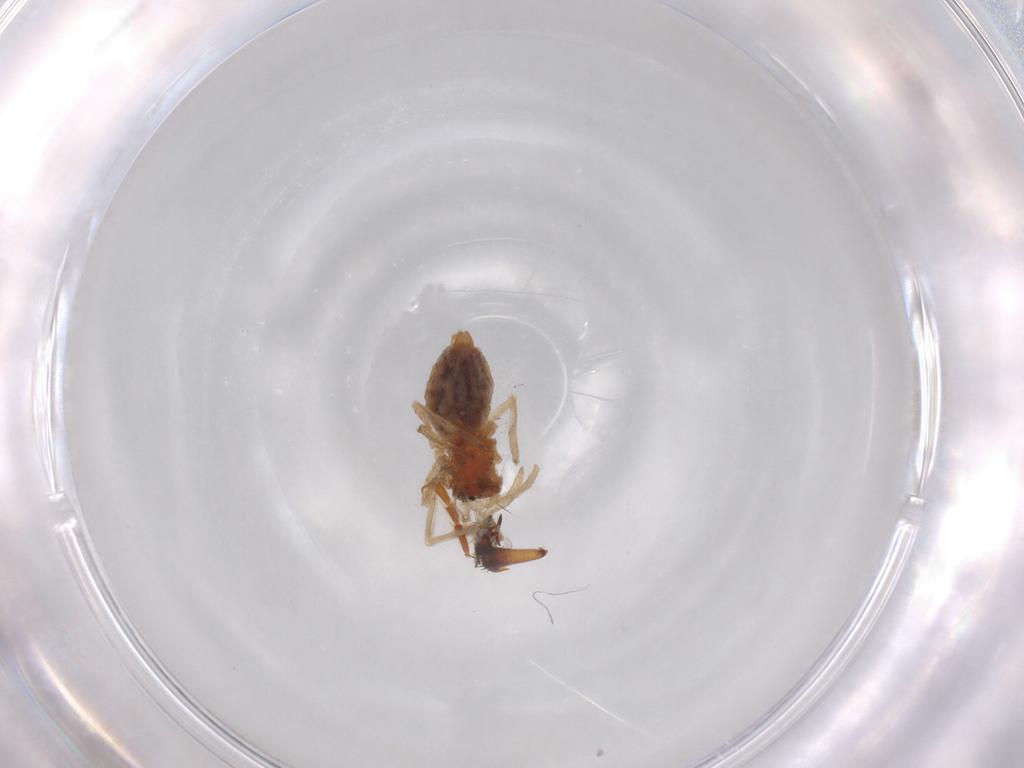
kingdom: Animalia
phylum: Arthropoda
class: Arachnida
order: Araneae
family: Cheiracanthiidae
